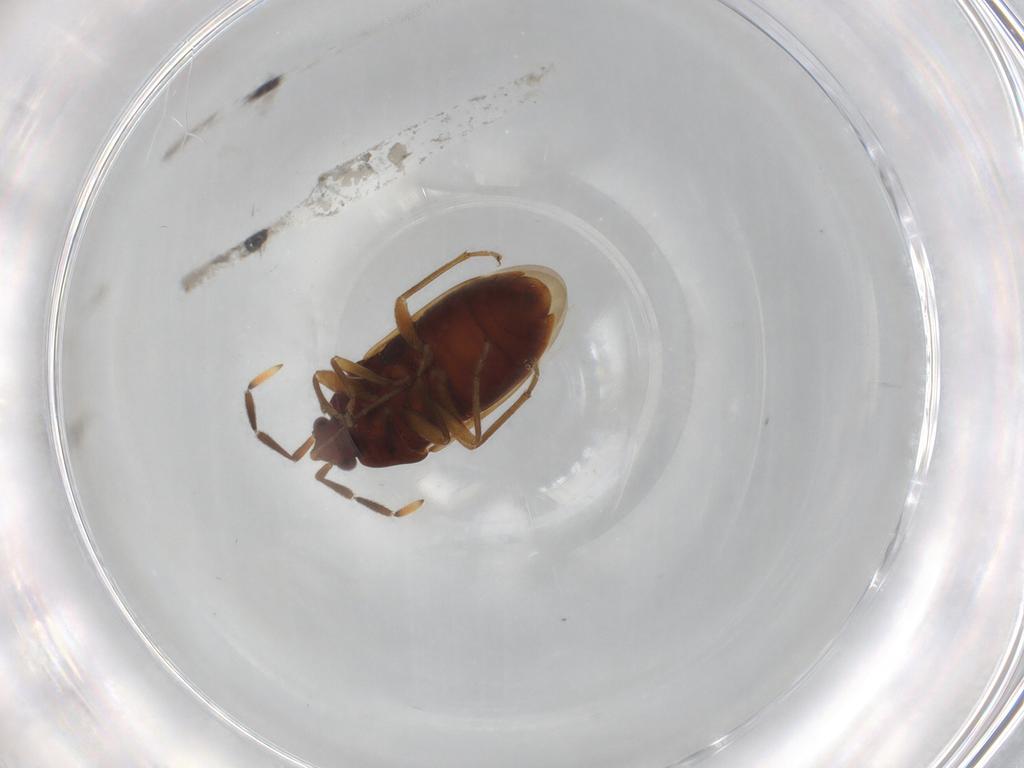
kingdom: Animalia
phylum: Arthropoda
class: Insecta
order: Hemiptera
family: Rhyparochromidae
